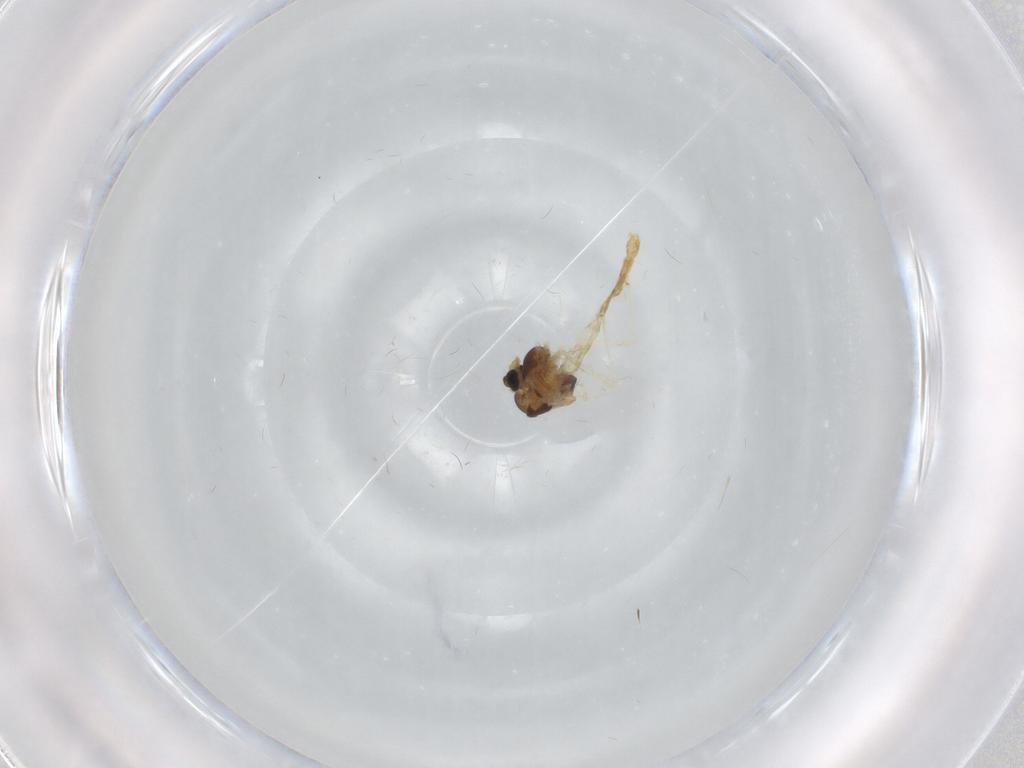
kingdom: Animalia
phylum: Arthropoda
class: Insecta
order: Diptera
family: Chironomidae
